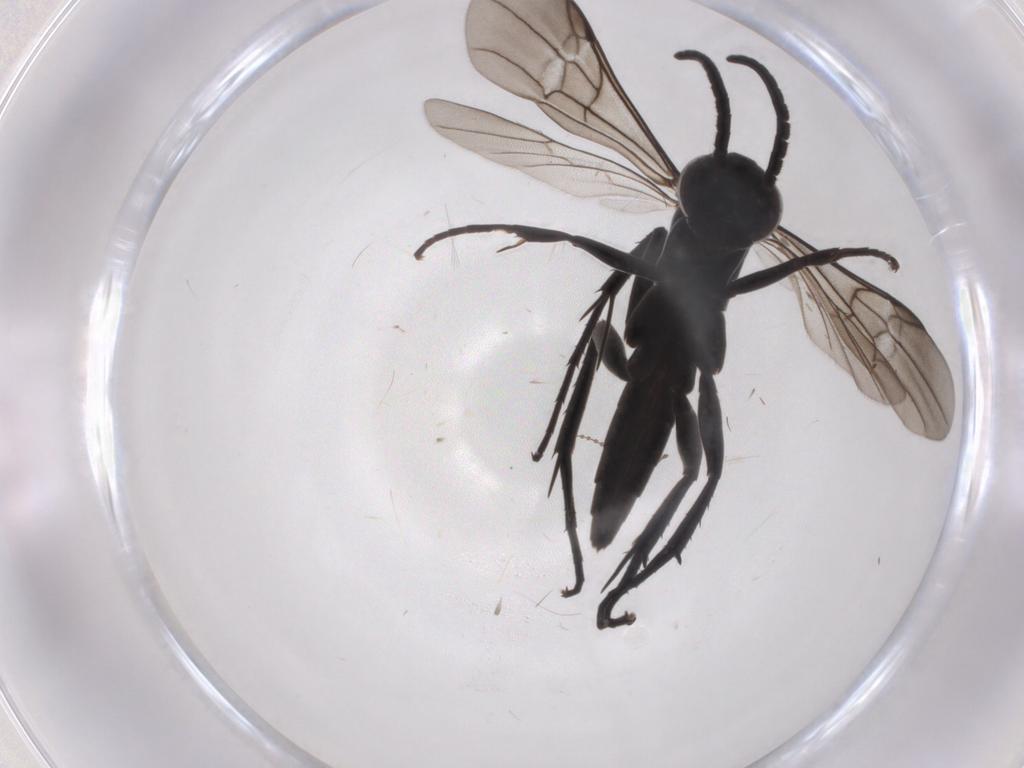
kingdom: Animalia
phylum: Arthropoda
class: Insecta
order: Hymenoptera
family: Pompilidae
